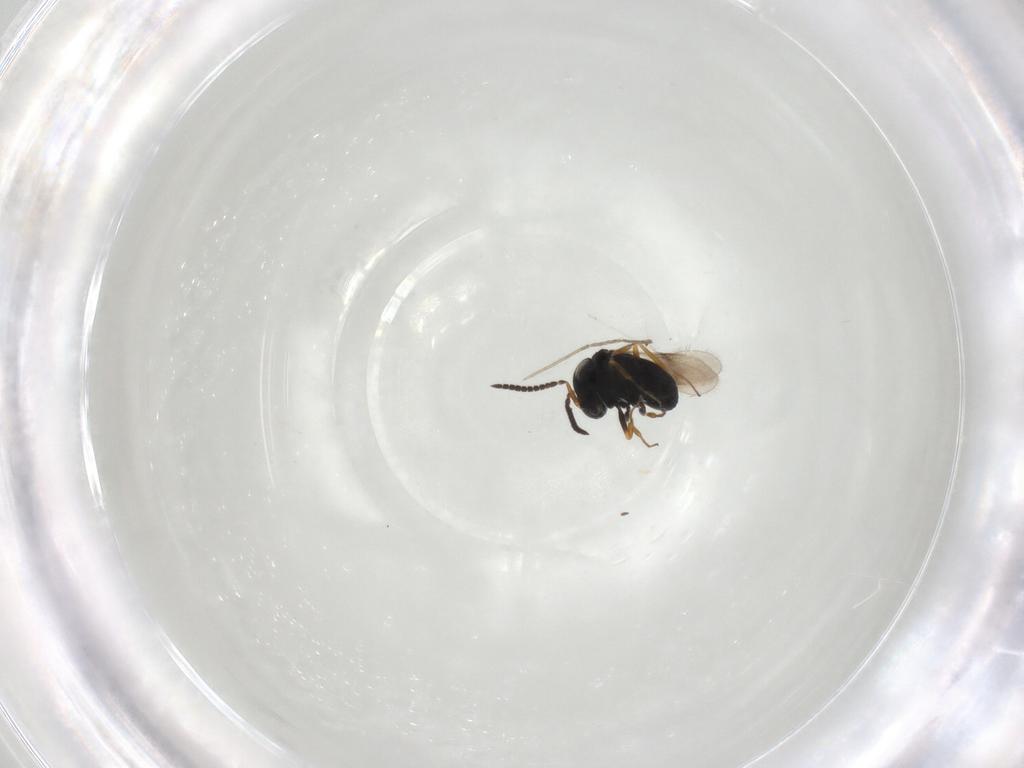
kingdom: Animalia
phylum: Arthropoda
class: Insecta
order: Hymenoptera
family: Scelionidae
